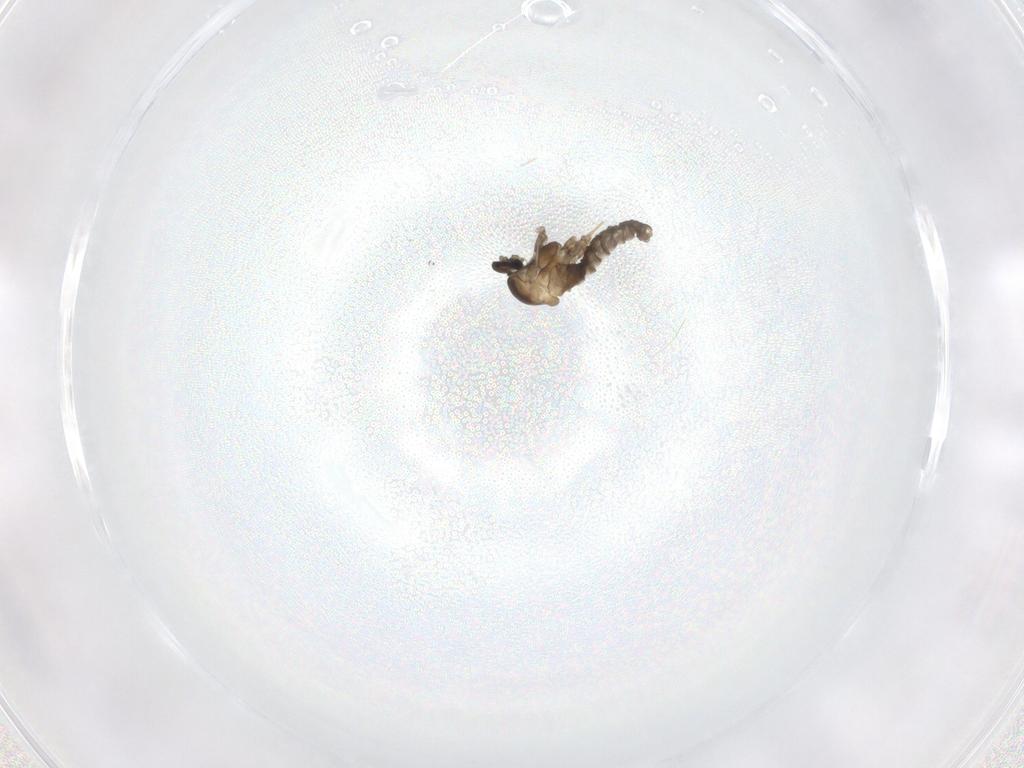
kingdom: Animalia
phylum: Arthropoda
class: Insecta
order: Diptera
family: Cecidomyiidae
